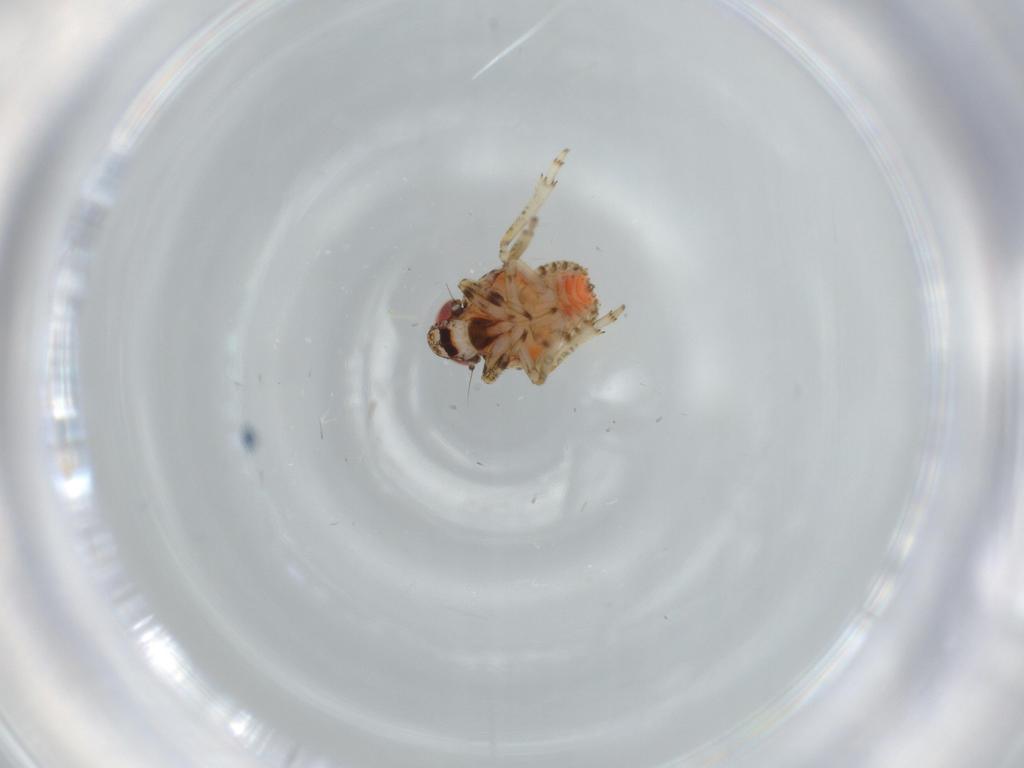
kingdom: Animalia
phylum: Arthropoda
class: Insecta
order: Hemiptera
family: Issidae
